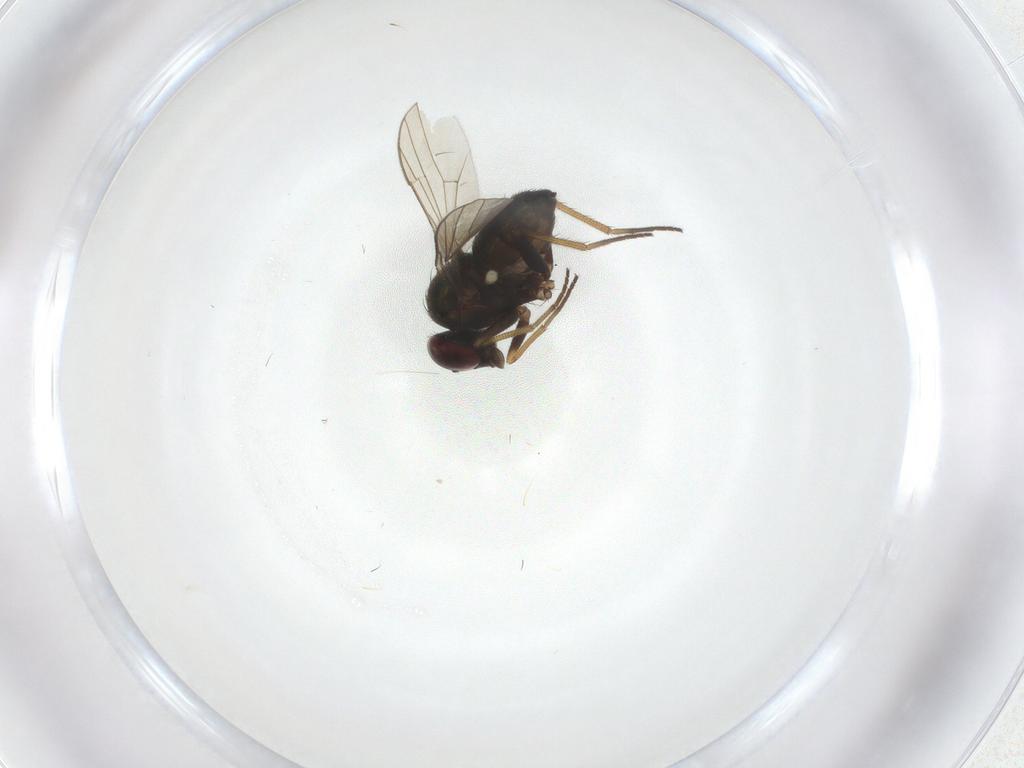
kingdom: Animalia
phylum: Arthropoda
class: Insecta
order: Diptera
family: Dolichopodidae
